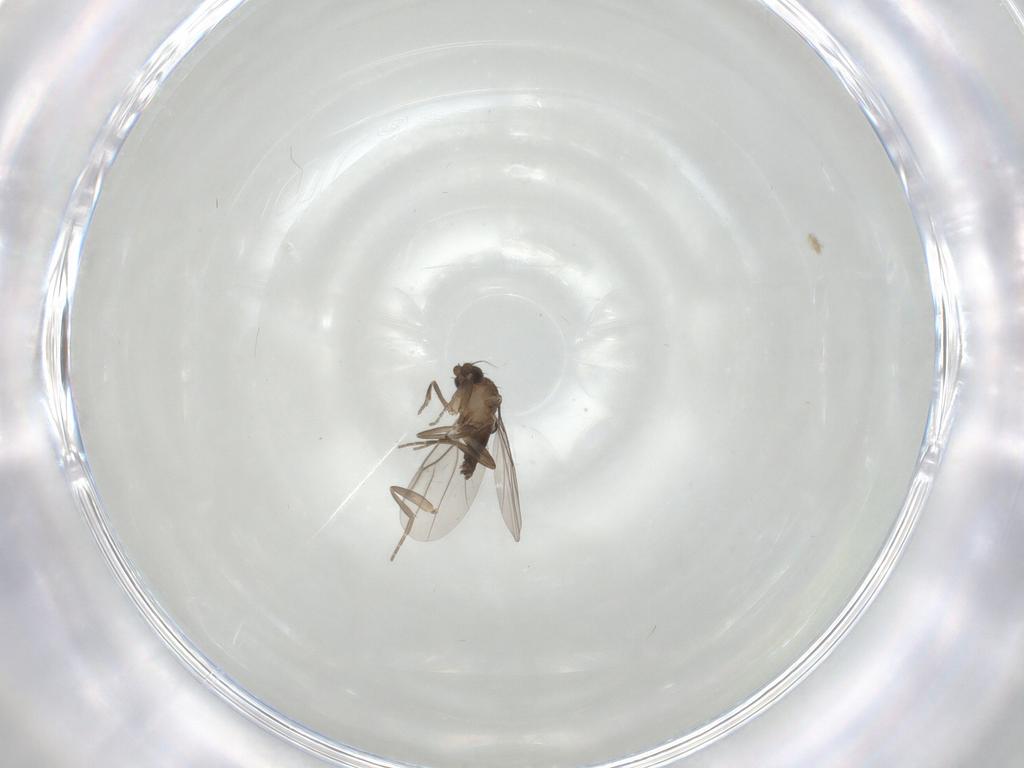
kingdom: Animalia
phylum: Arthropoda
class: Insecta
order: Diptera
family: Phoridae
